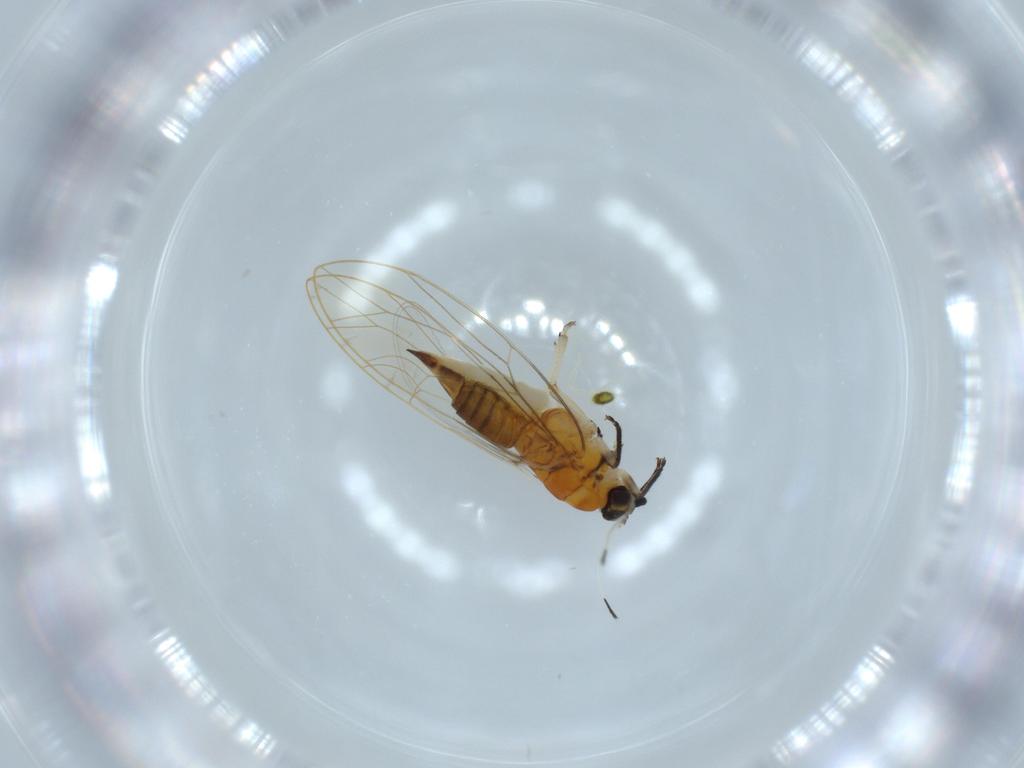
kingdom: Animalia
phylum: Arthropoda
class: Insecta
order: Hemiptera
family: Triozidae
